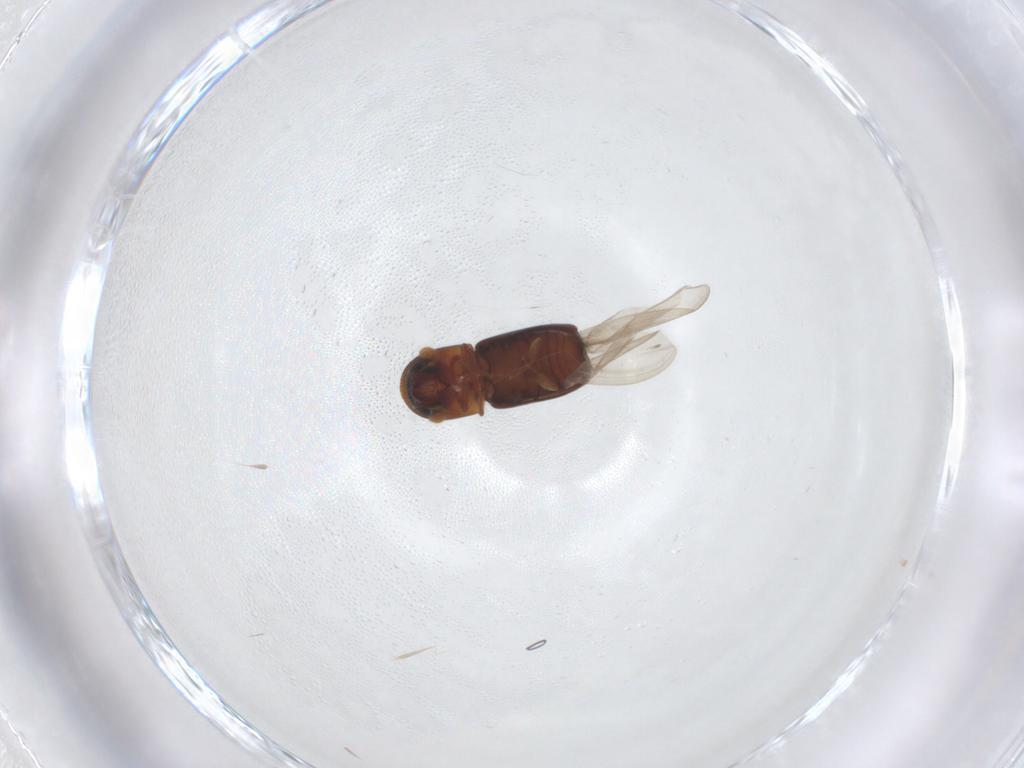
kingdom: Animalia
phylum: Arthropoda
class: Insecta
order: Coleoptera
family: Curculionidae
